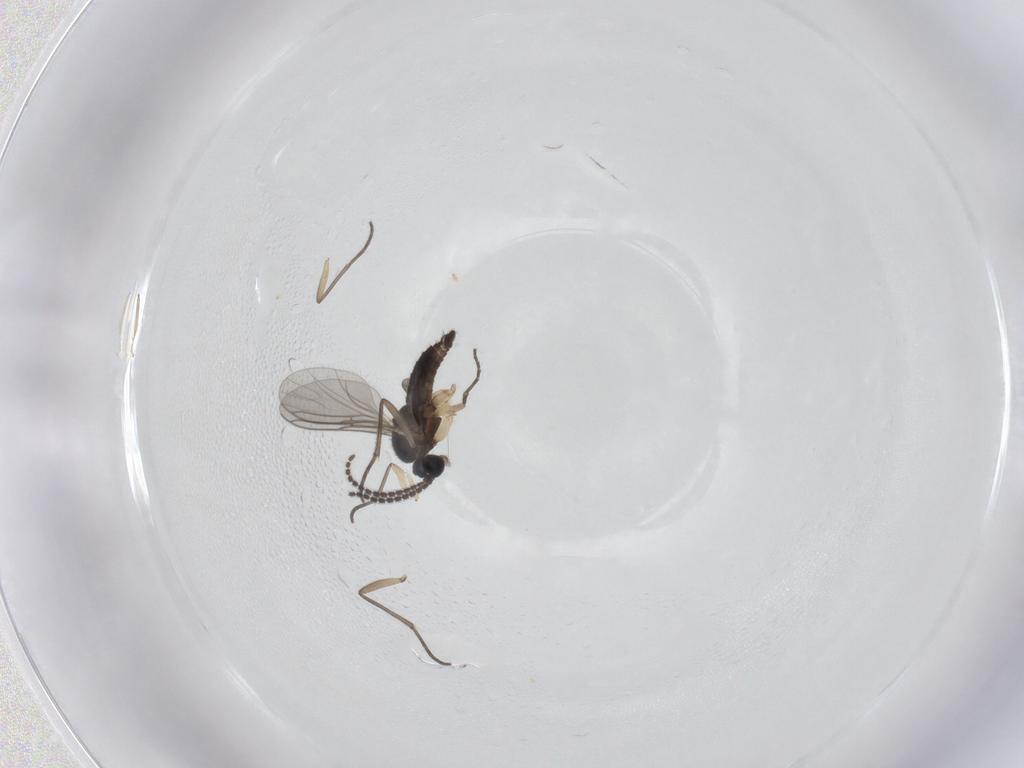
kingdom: Animalia
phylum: Arthropoda
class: Insecta
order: Diptera
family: Sciaridae
